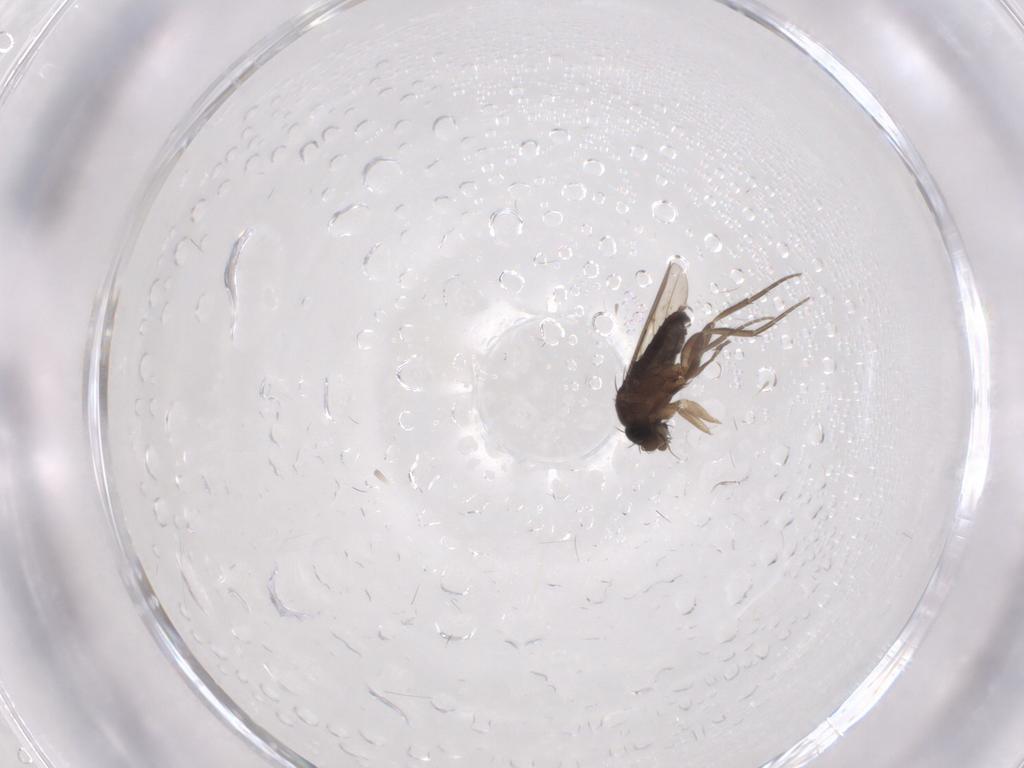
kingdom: Animalia
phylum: Arthropoda
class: Insecta
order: Diptera
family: Phoridae
